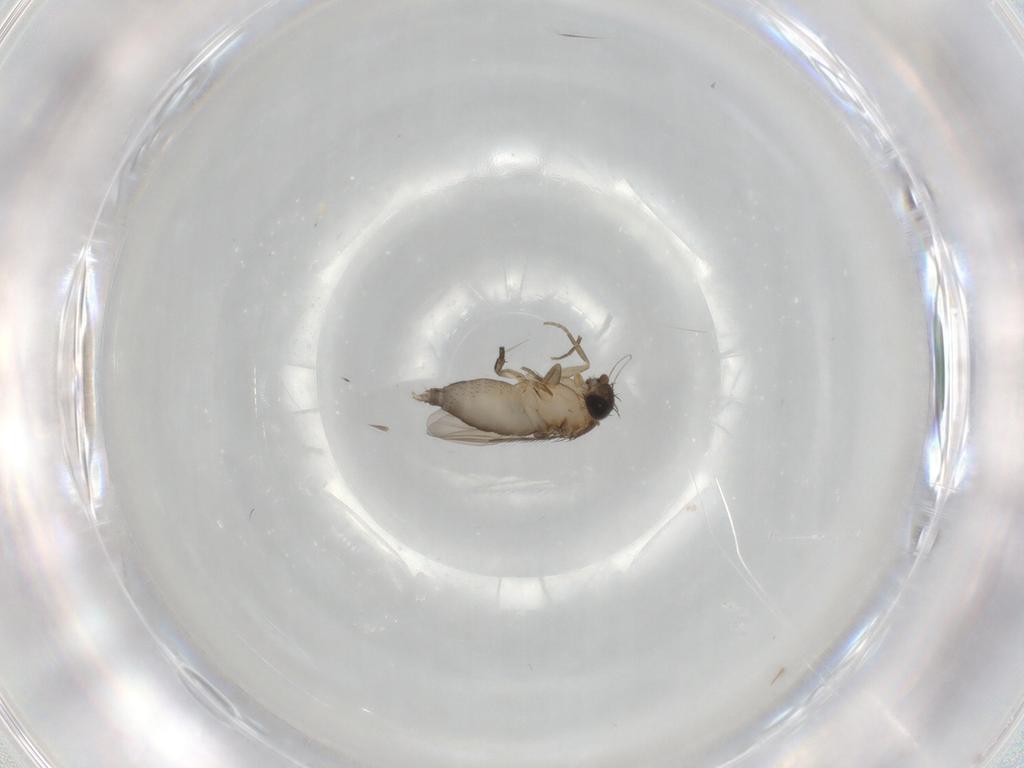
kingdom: Animalia
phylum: Arthropoda
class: Insecta
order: Diptera
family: Phoridae
